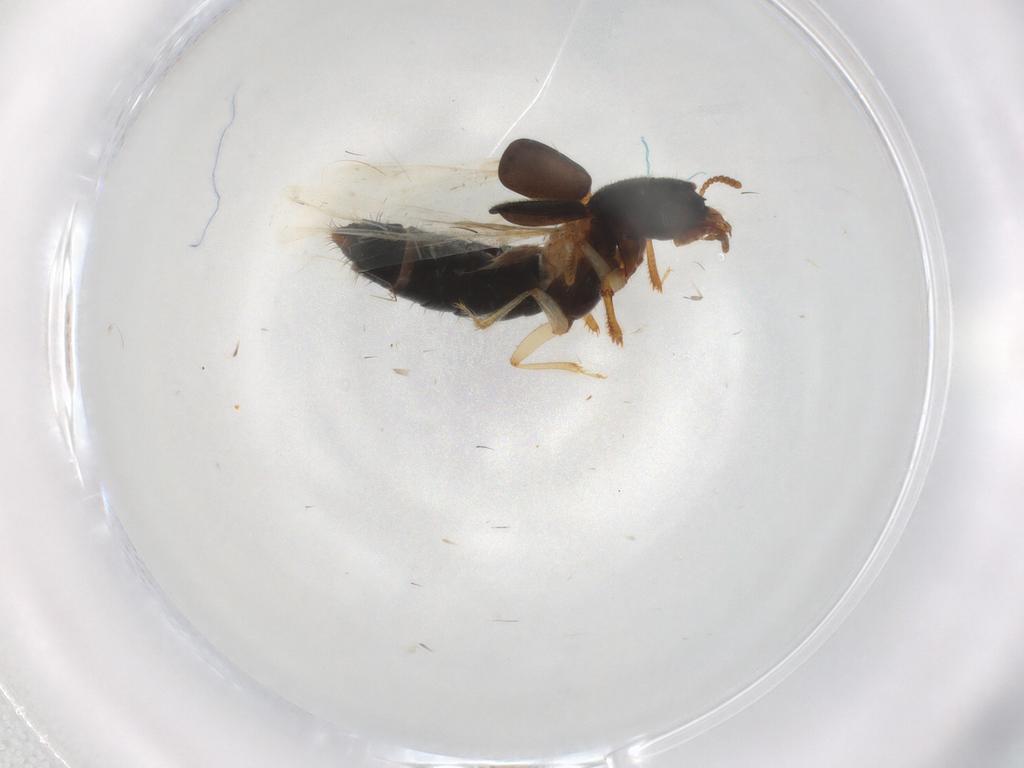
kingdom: Animalia
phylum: Arthropoda
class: Insecta
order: Coleoptera
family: Staphylinidae
